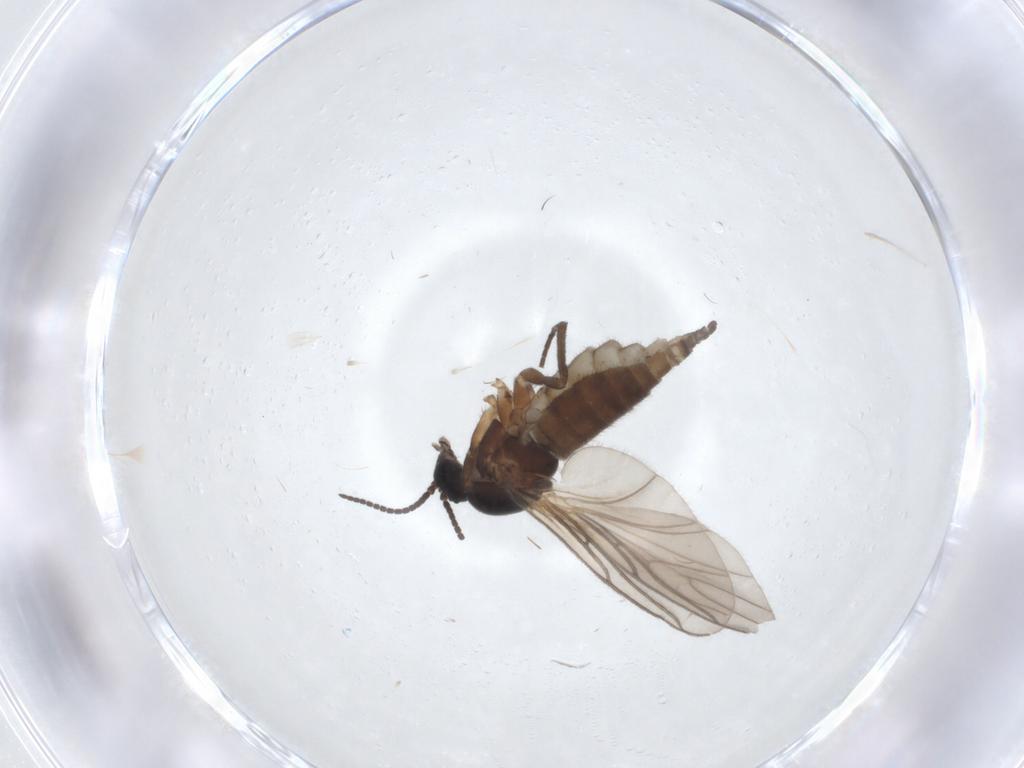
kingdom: Animalia
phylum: Arthropoda
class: Insecta
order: Diptera
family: Sciaridae
